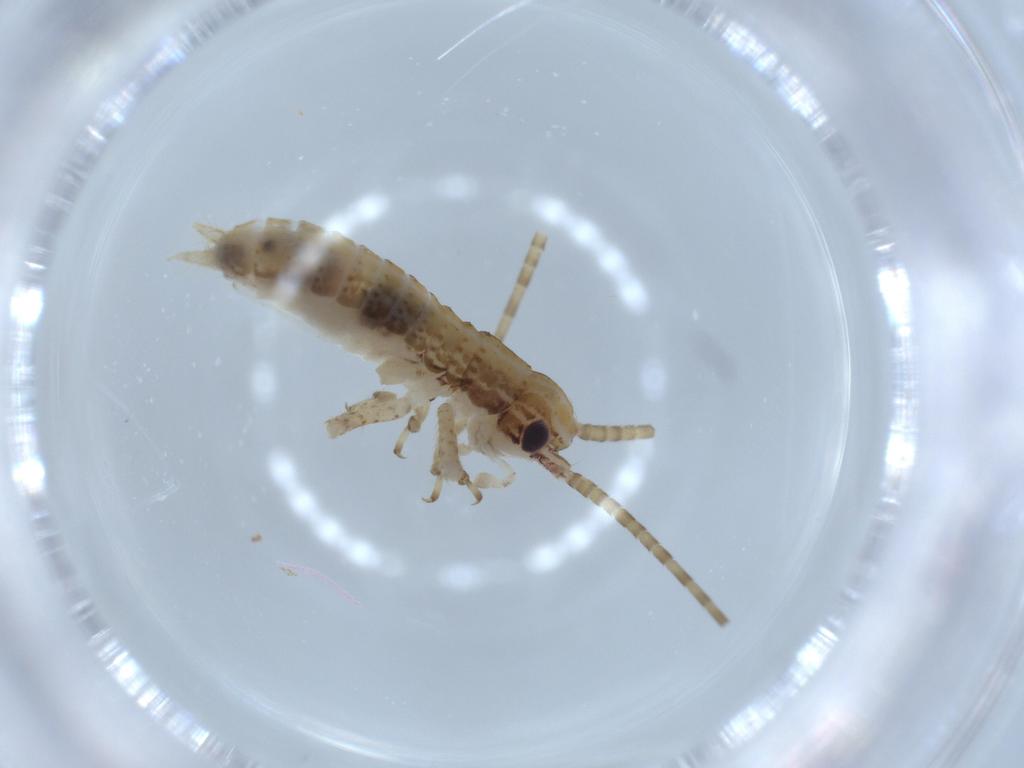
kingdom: Animalia
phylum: Arthropoda
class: Insecta
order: Orthoptera
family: Gryllidae
